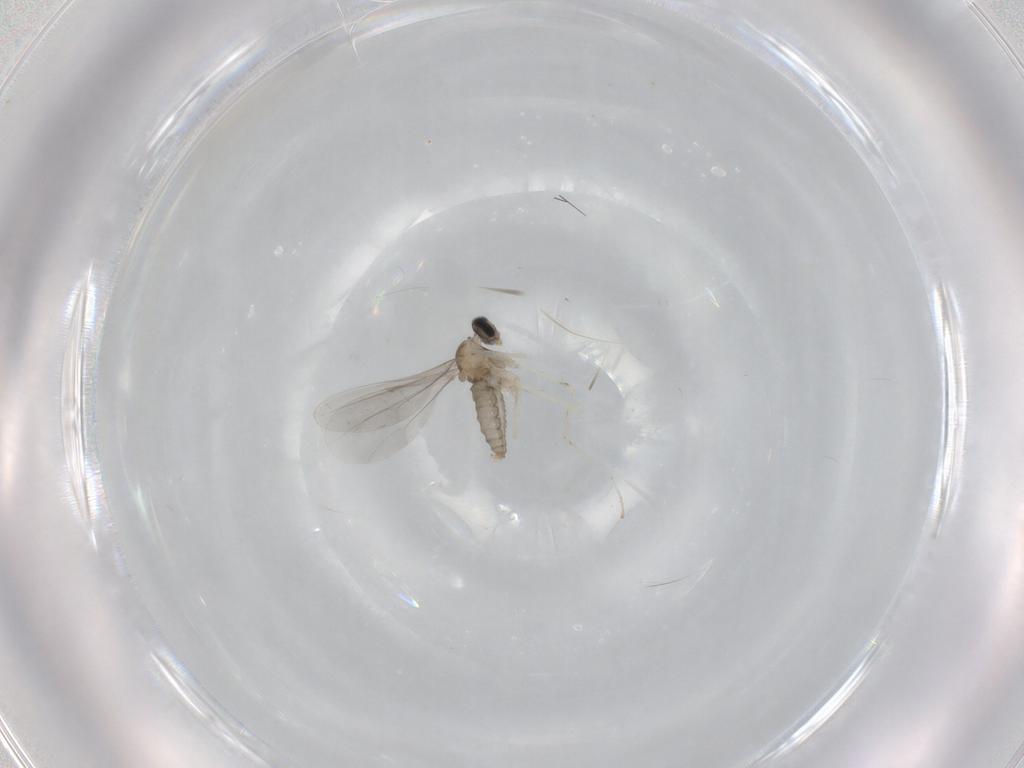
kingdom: Animalia
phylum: Arthropoda
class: Insecta
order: Diptera
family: Cecidomyiidae
